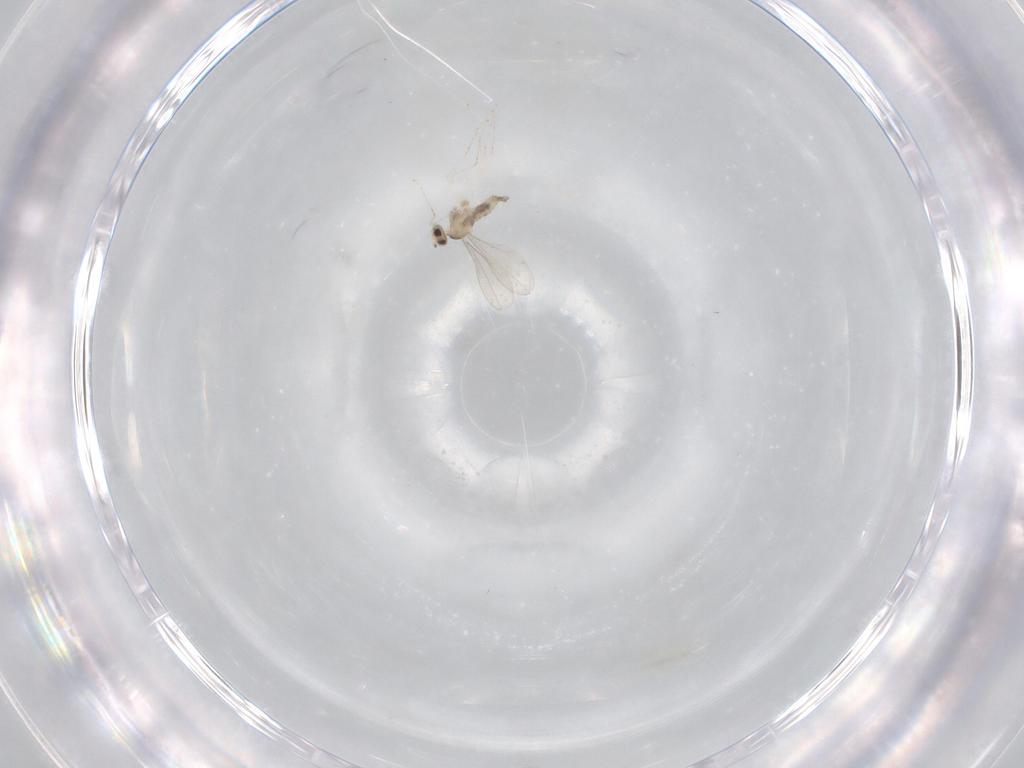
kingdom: Animalia
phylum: Arthropoda
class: Insecta
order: Diptera
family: Cecidomyiidae
